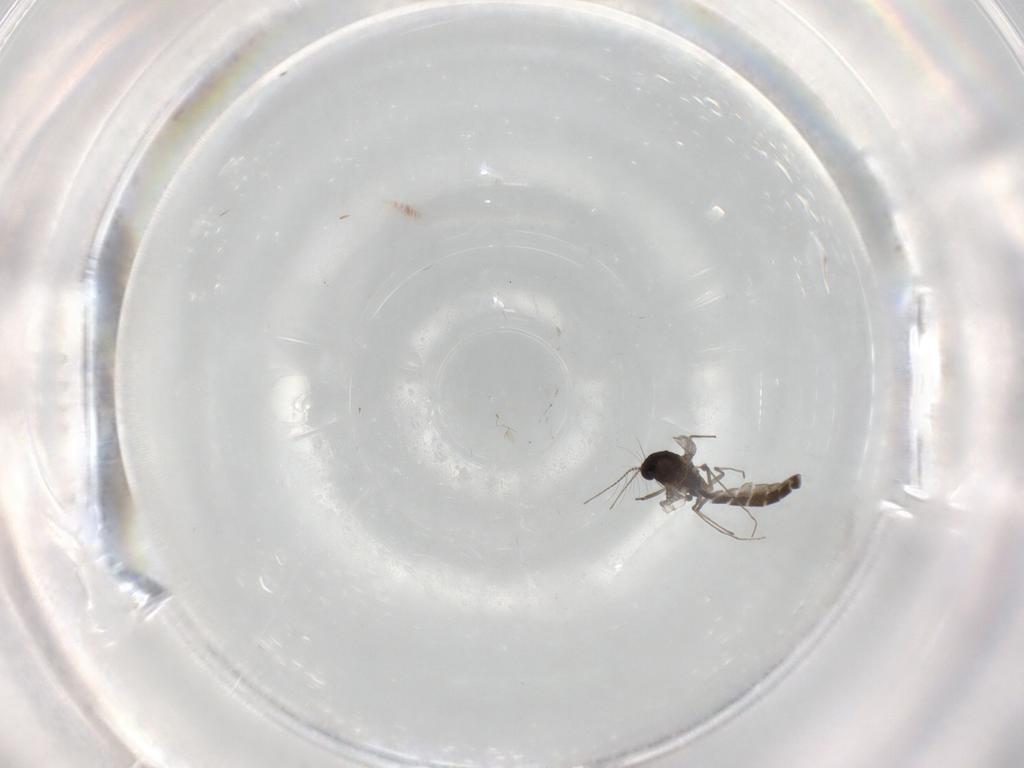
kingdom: Animalia
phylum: Arthropoda
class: Insecta
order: Diptera
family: Limoniidae
